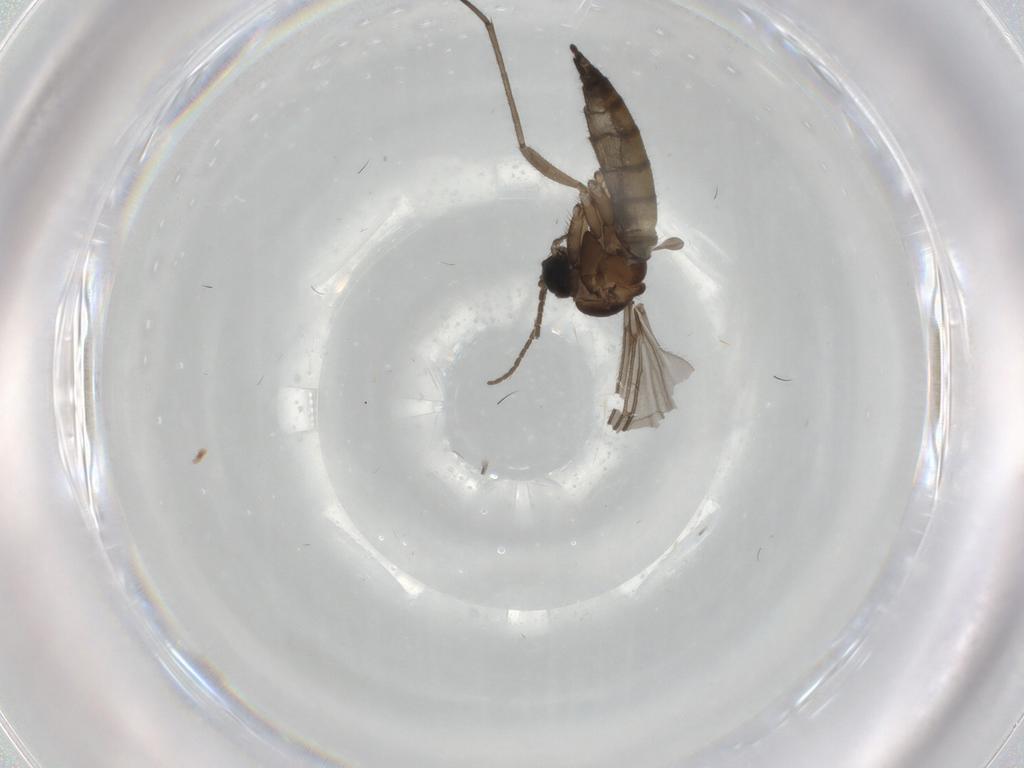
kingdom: Animalia
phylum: Arthropoda
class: Insecta
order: Diptera
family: Sciaridae
